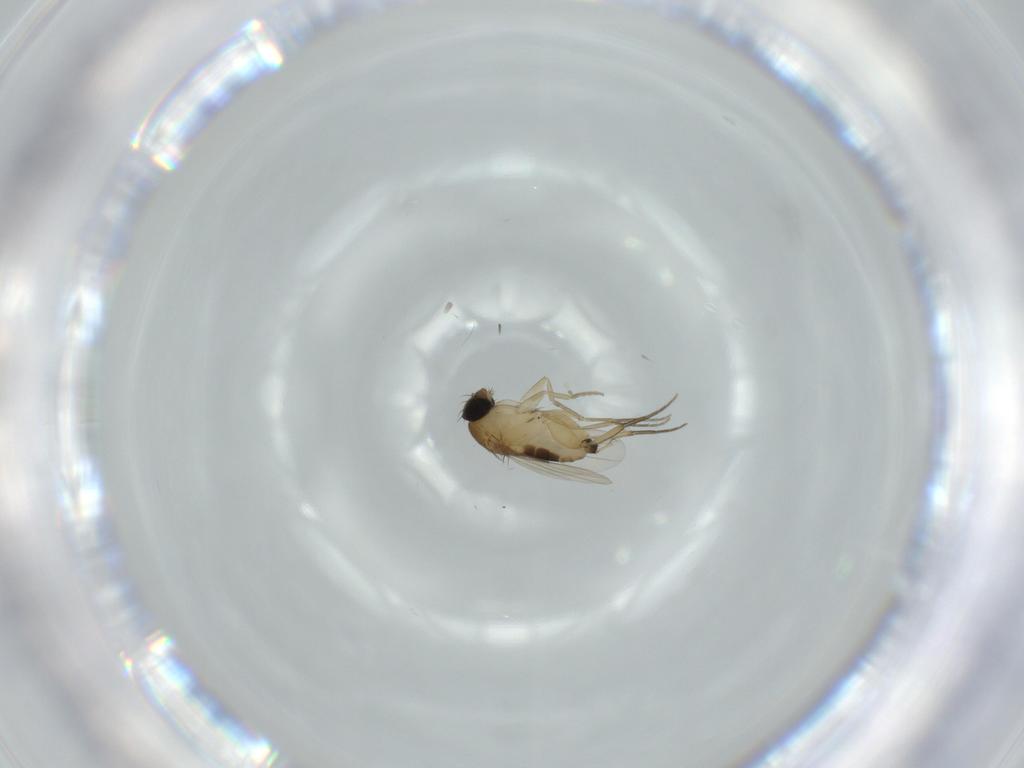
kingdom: Animalia
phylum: Arthropoda
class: Insecta
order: Diptera
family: Phoridae
